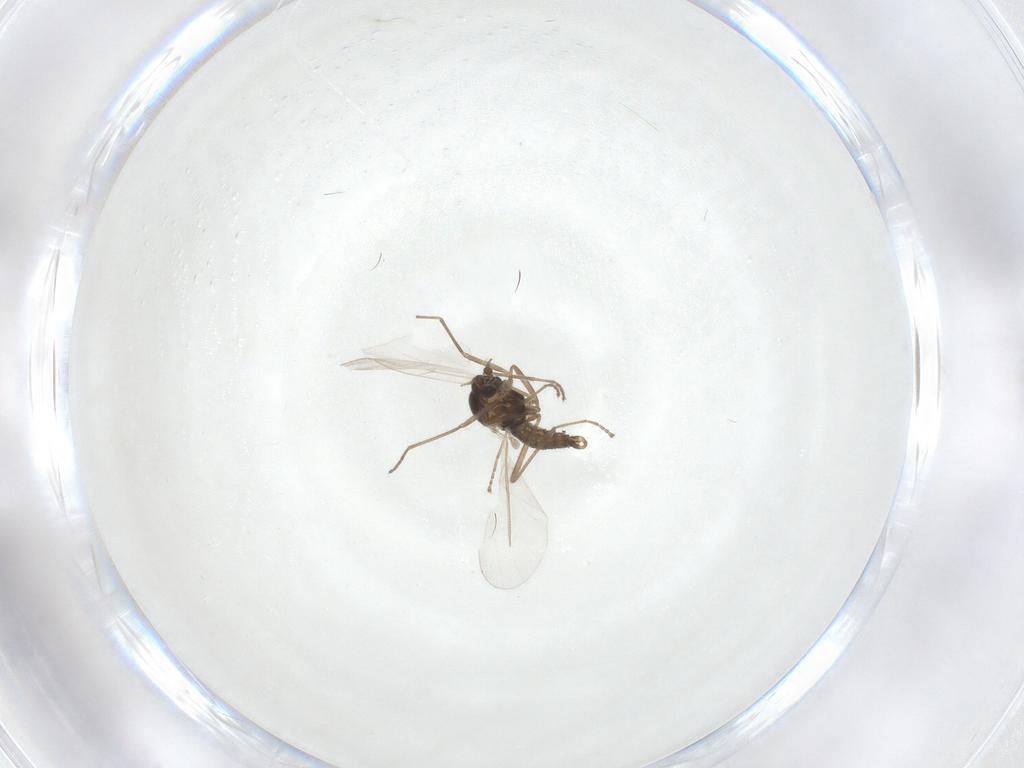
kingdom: Animalia
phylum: Arthropoda
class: Insecta
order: Diptera
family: Cecidomyiidae
